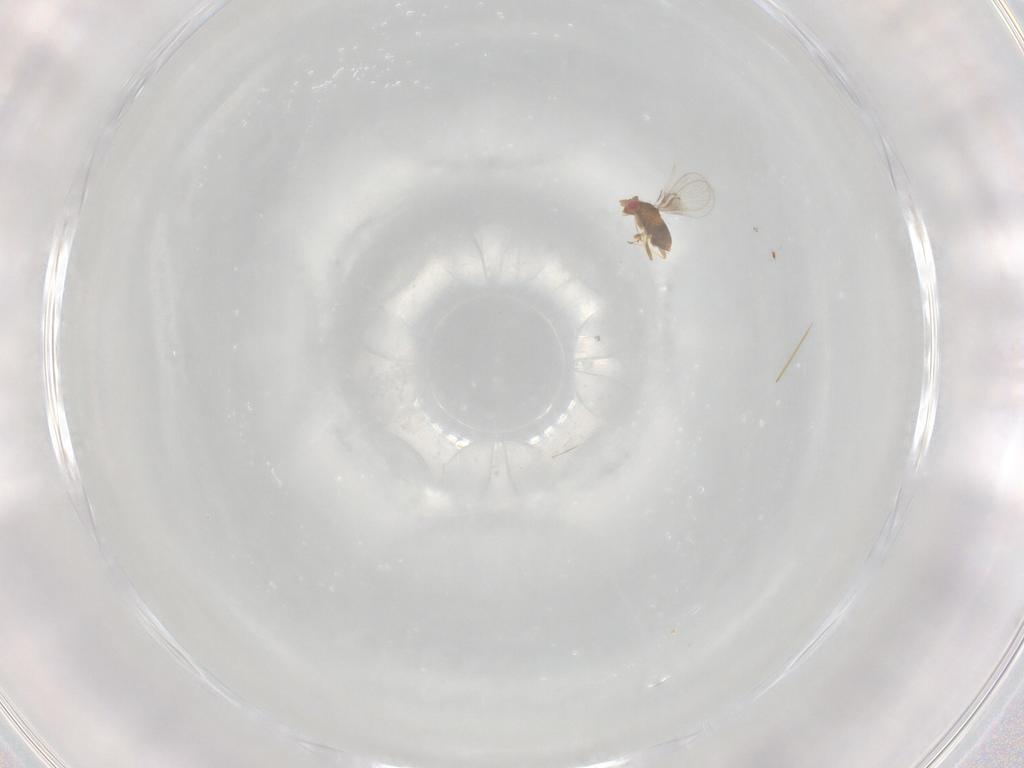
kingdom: Animalia
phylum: Arthropoda
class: Insecta
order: Hymenoptera
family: Trichogrammatidae
